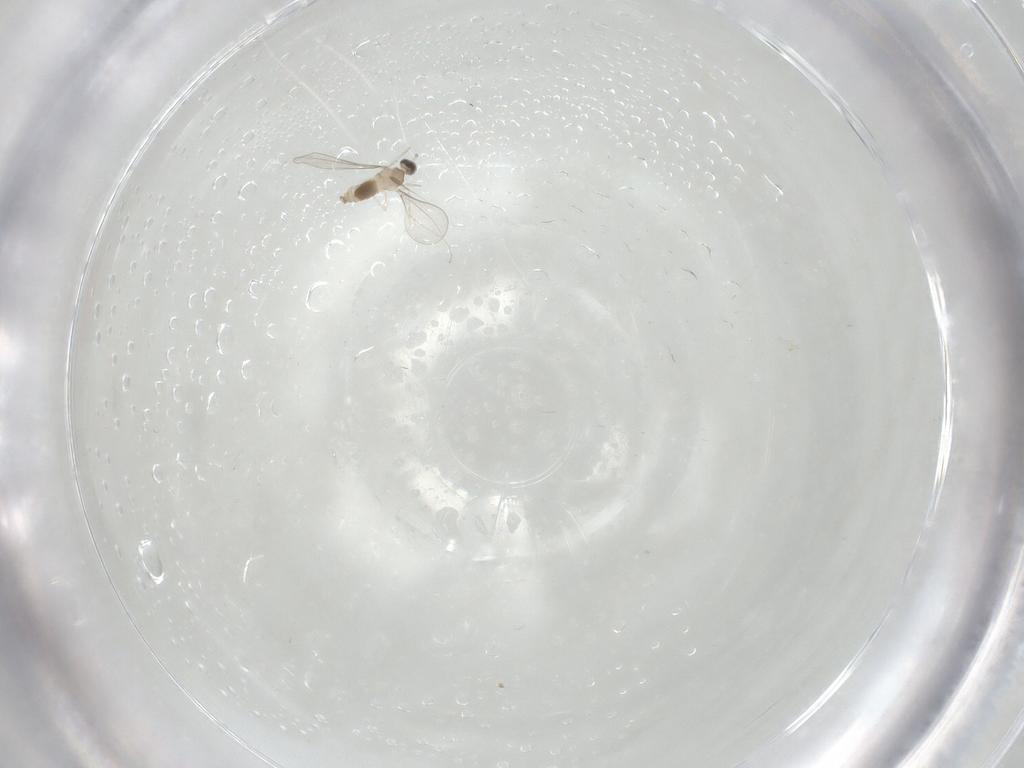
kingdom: Animalia
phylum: Arthropoda
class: Insecta
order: Diptera
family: Cecidomyiidae
